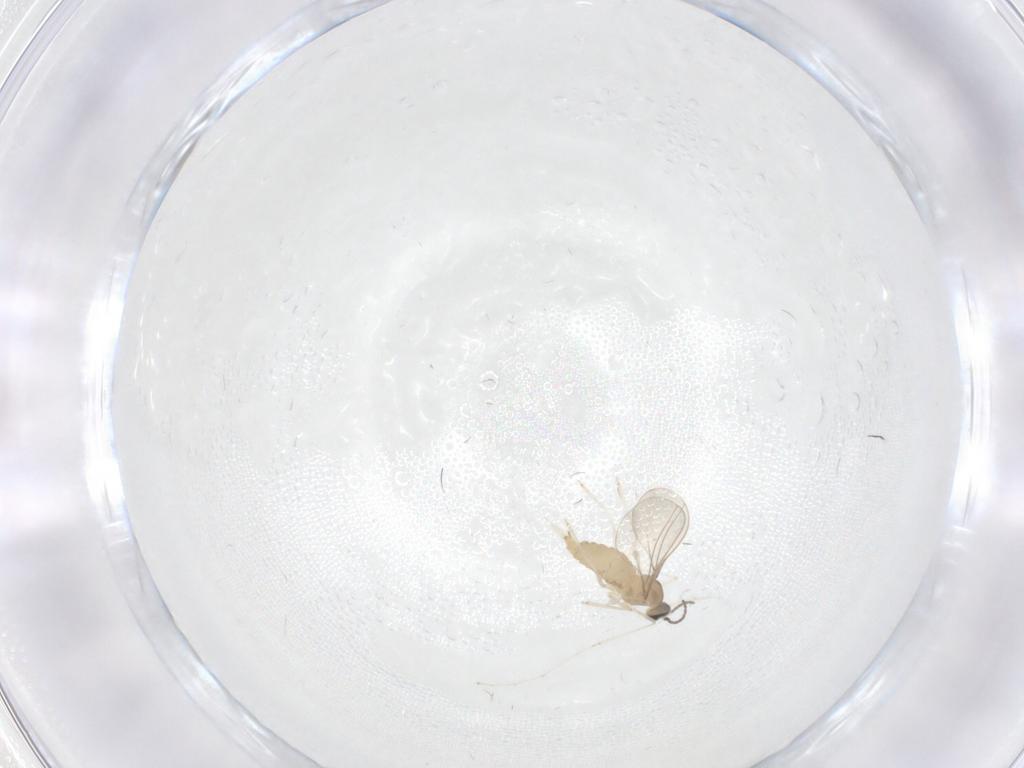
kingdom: Animalia
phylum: Arthropoda
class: Insecta
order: Diptera
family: Cecidomyiidae
